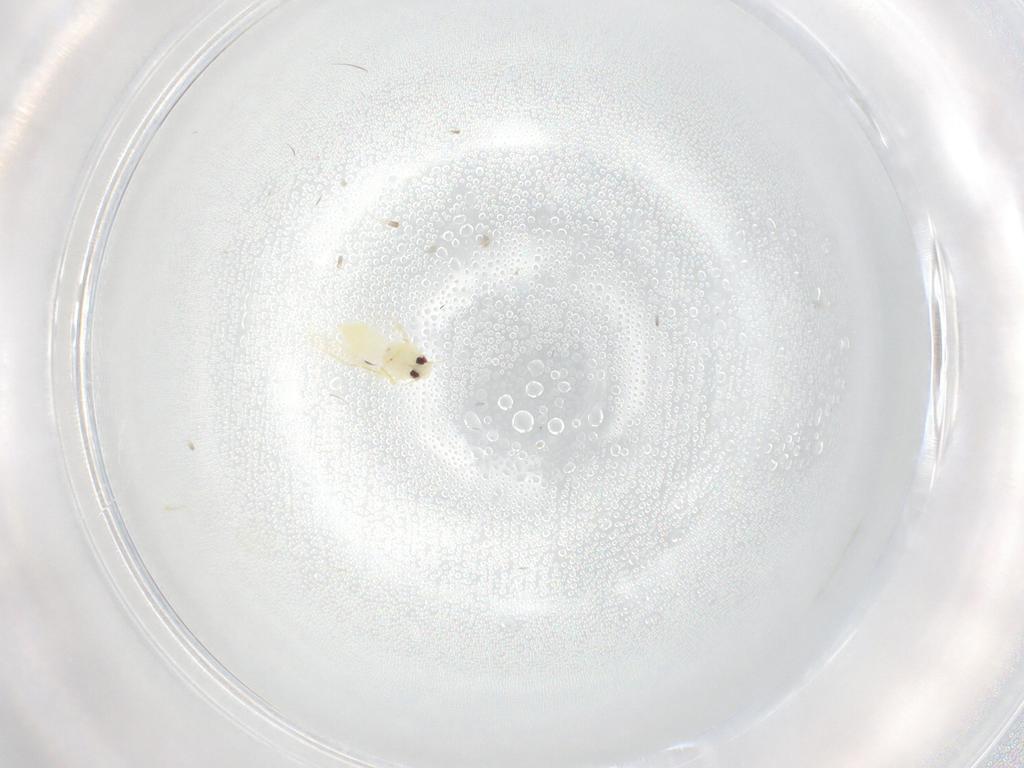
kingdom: Animalia
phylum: Arthropoda
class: Insecta
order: Hemiptera
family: Aleyrodidae
